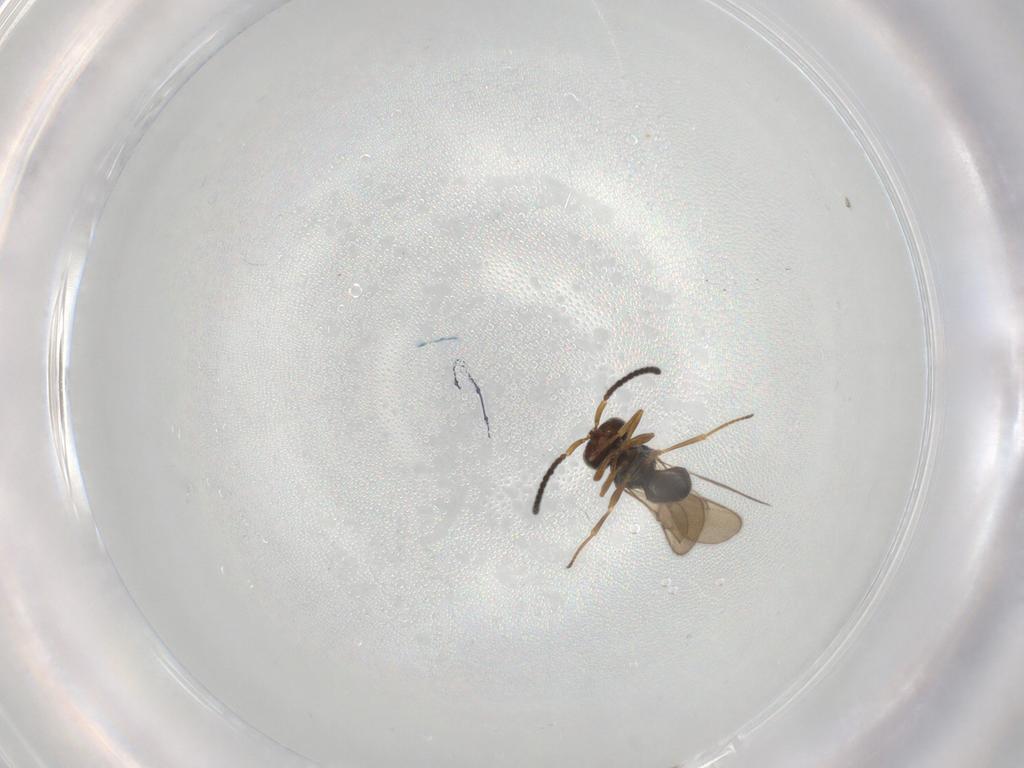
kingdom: Animalia
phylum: Arthropoda
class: Insecta
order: Hymenoptera
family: Scelionidae
